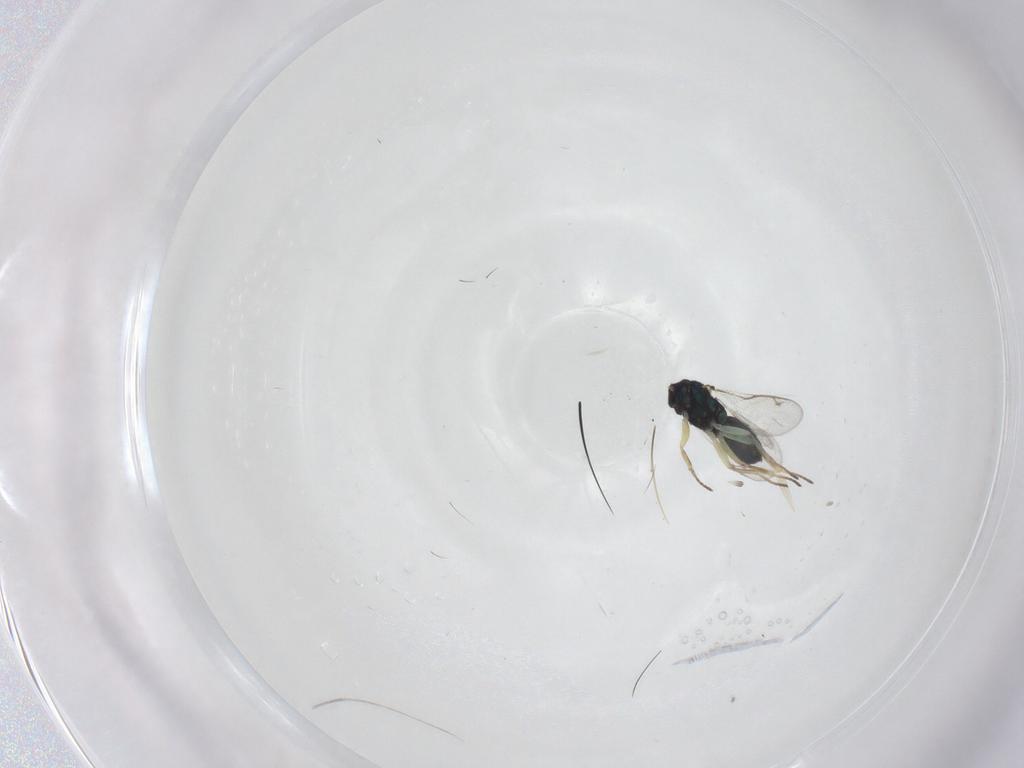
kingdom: Animalia
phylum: Arthropoda
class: Insecta
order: Hymenoptera
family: Eupelmidae
